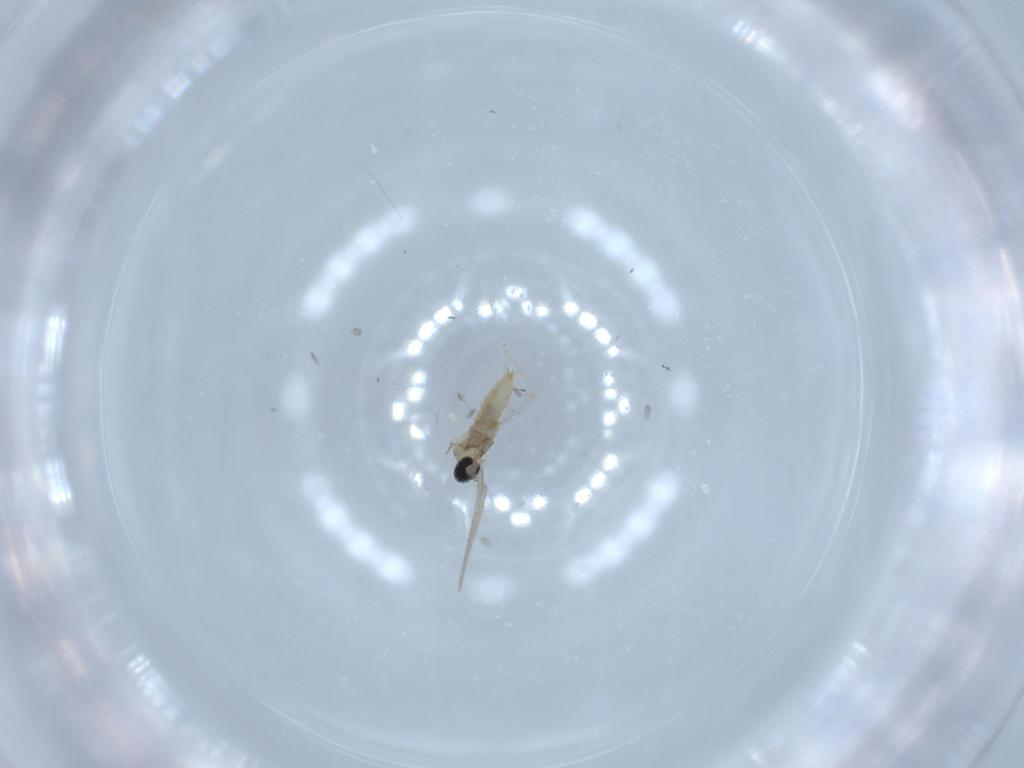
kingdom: Animalia
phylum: Arthropoda
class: Insecta
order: Diptera
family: Cecidomyiidae
